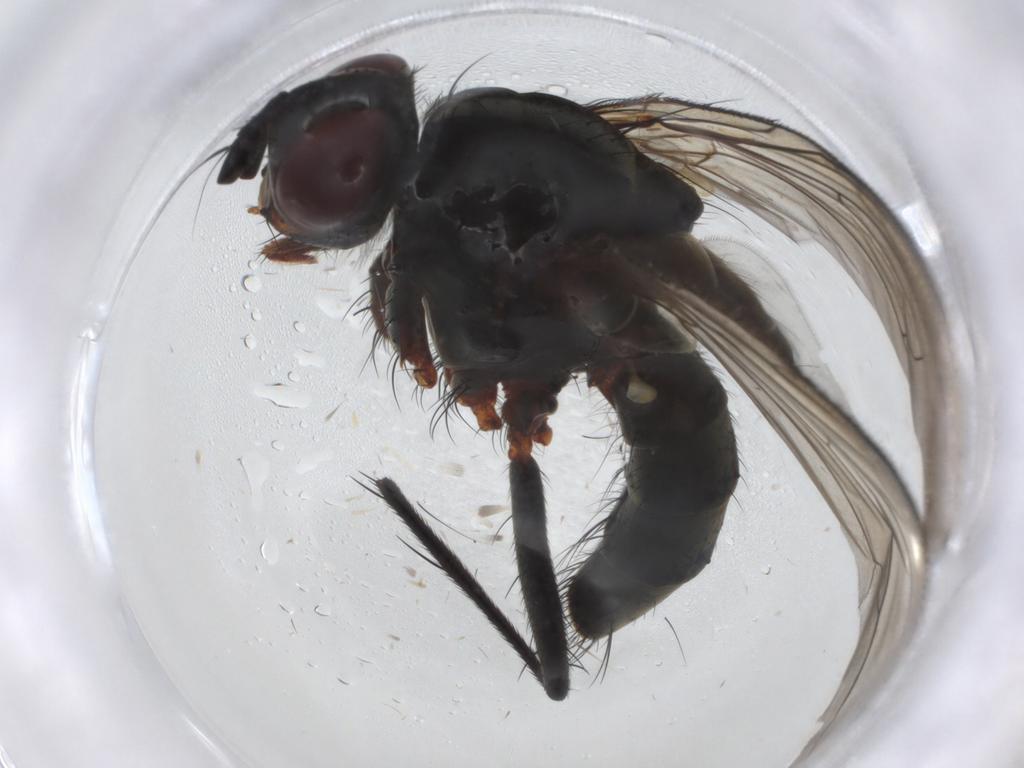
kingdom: Animalia
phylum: Arthropoda
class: Insecta
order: Diptera
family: Tachinidae
